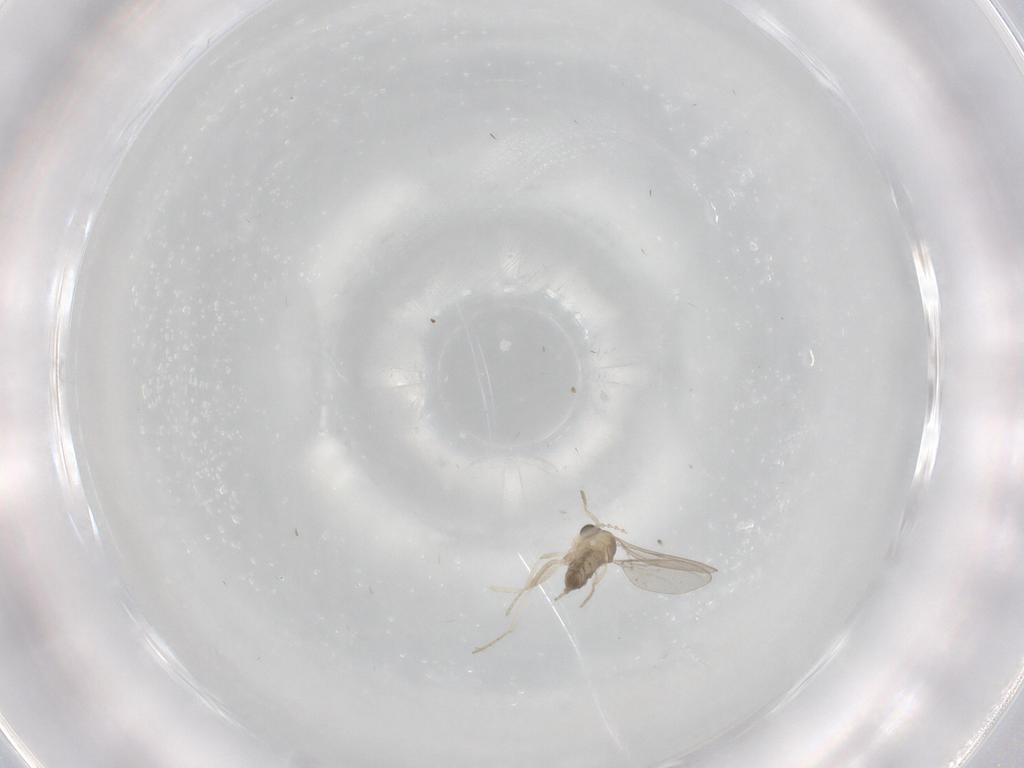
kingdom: Animalia
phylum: Arthropoda
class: Insecta
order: Diptera
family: Cecidomyiidae
